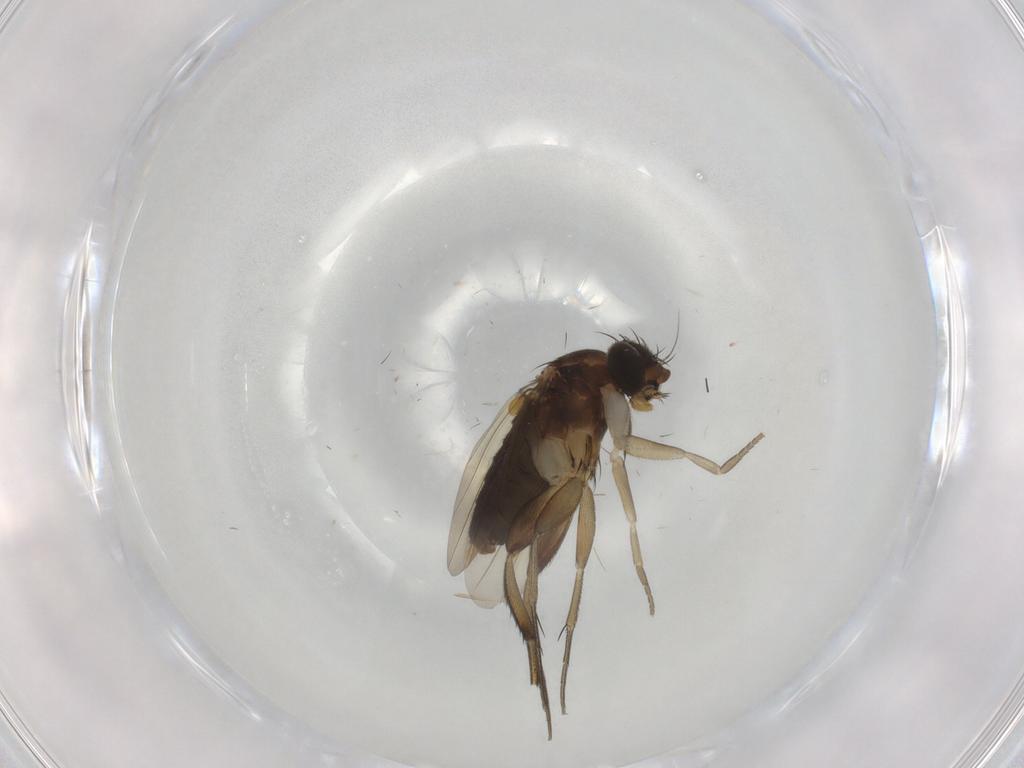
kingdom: Animalia
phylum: Arthropoda
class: Insecta
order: Diptera
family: Phoridae
